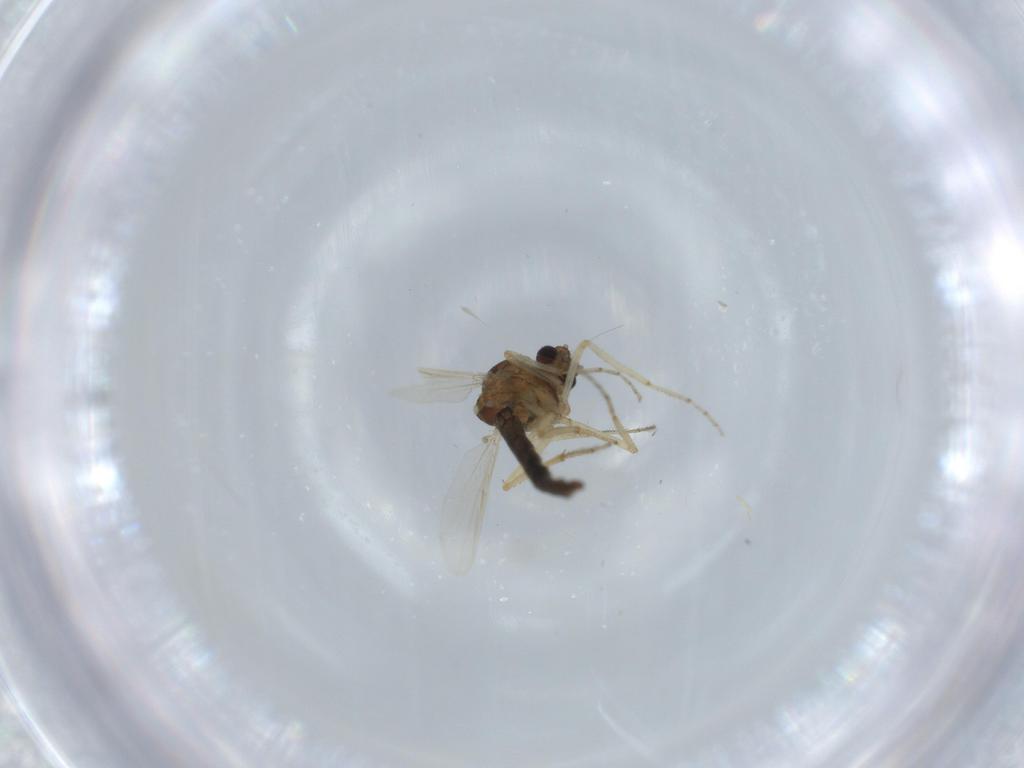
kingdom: Animalia
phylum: Arthropoda
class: Insecta
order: Diptera
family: Ceratopogonidae
